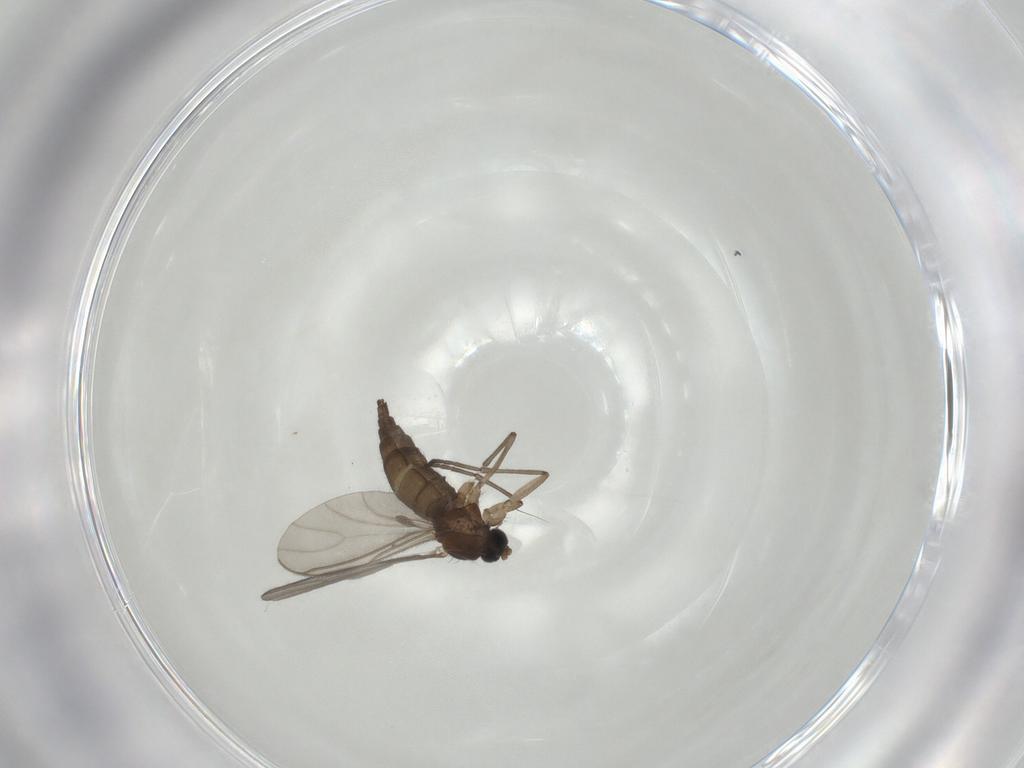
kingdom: Animalia
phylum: Arthropoda
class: Insecta
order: Diptera
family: Sciaridae
